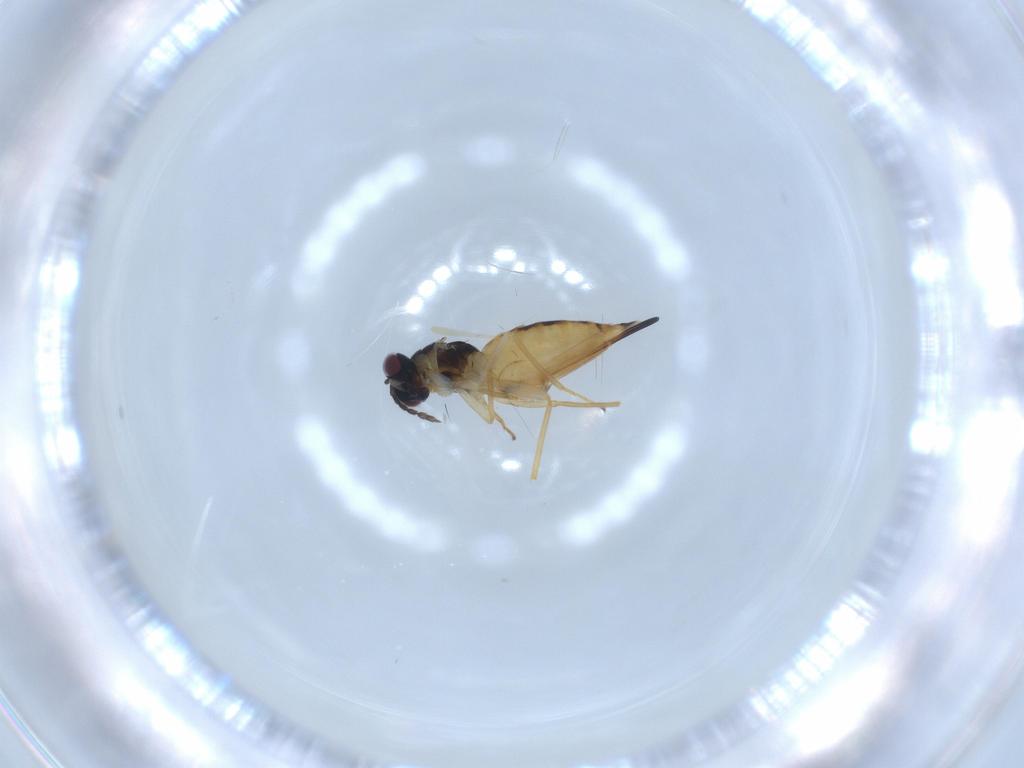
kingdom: Animalia
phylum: Arthropoda
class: Insecta
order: Hymenoptera
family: Eulophidae
